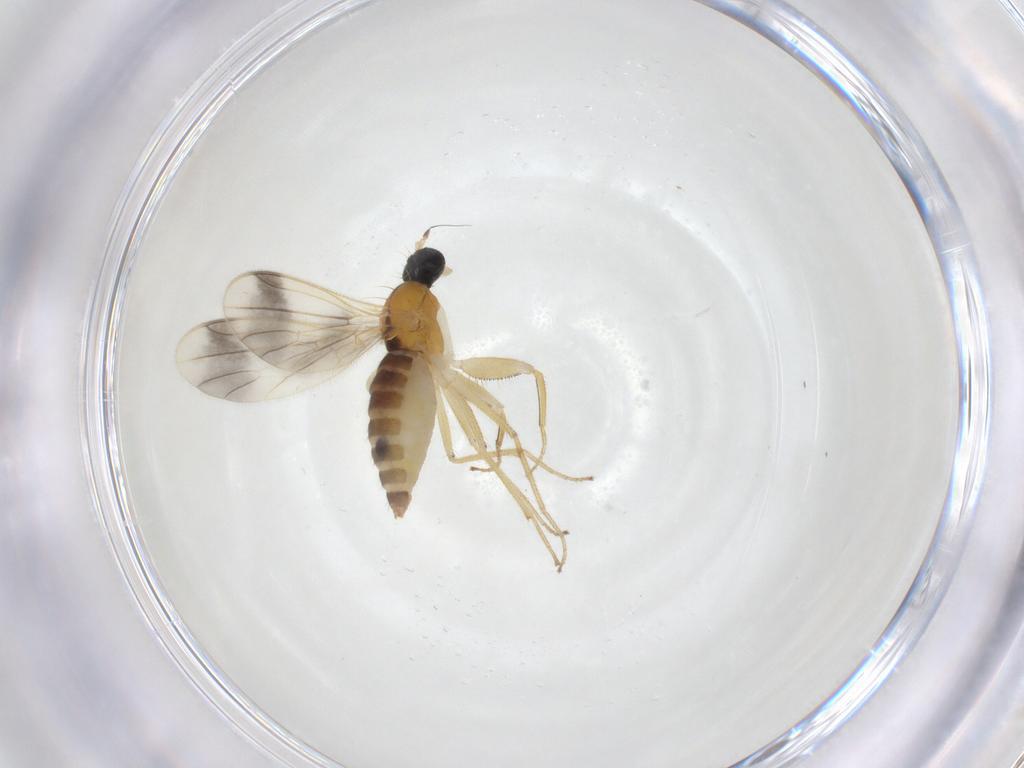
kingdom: Animalia
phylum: Arthropoda
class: Insecta
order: Diptera
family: Empididae
